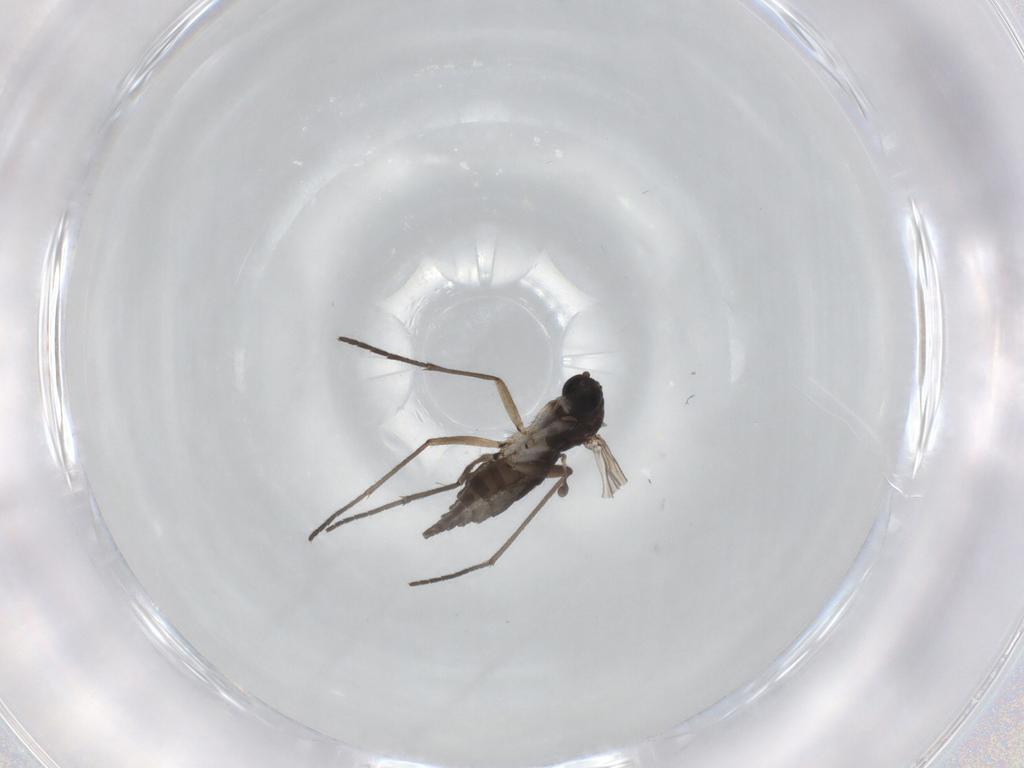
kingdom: Animalia
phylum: Arthropoda
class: Insecta
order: Diptera
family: Sciaridae
